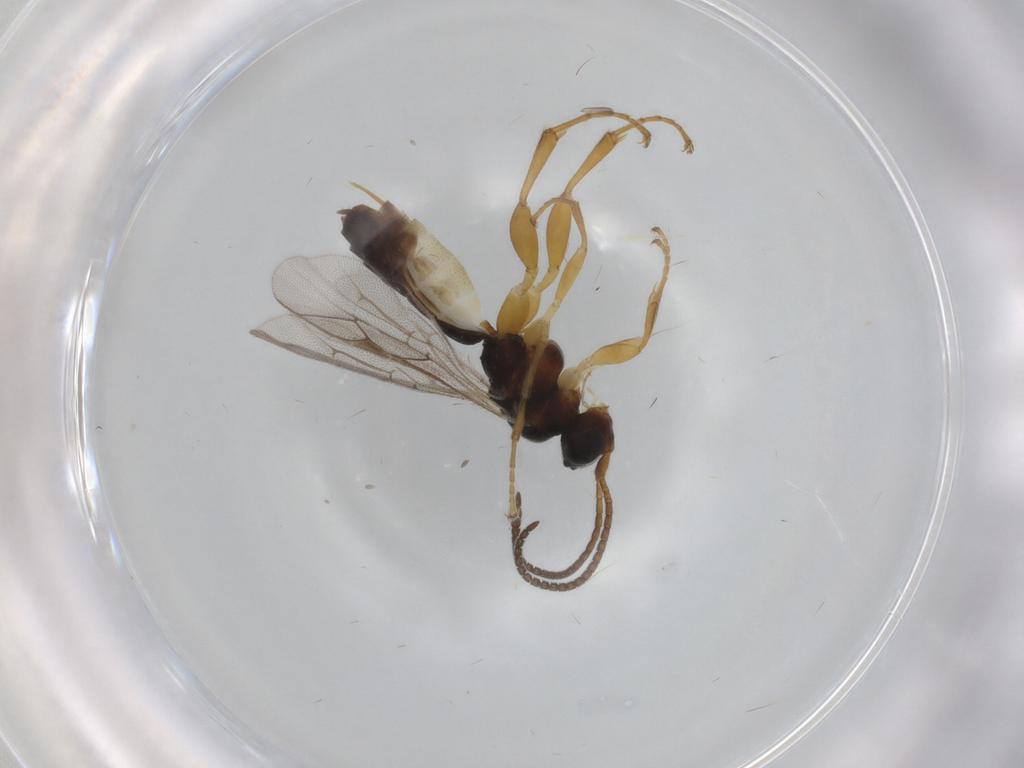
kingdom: Animalia
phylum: Arthropoda
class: Insecta
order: Hymenoptera
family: Ichneumonidae
